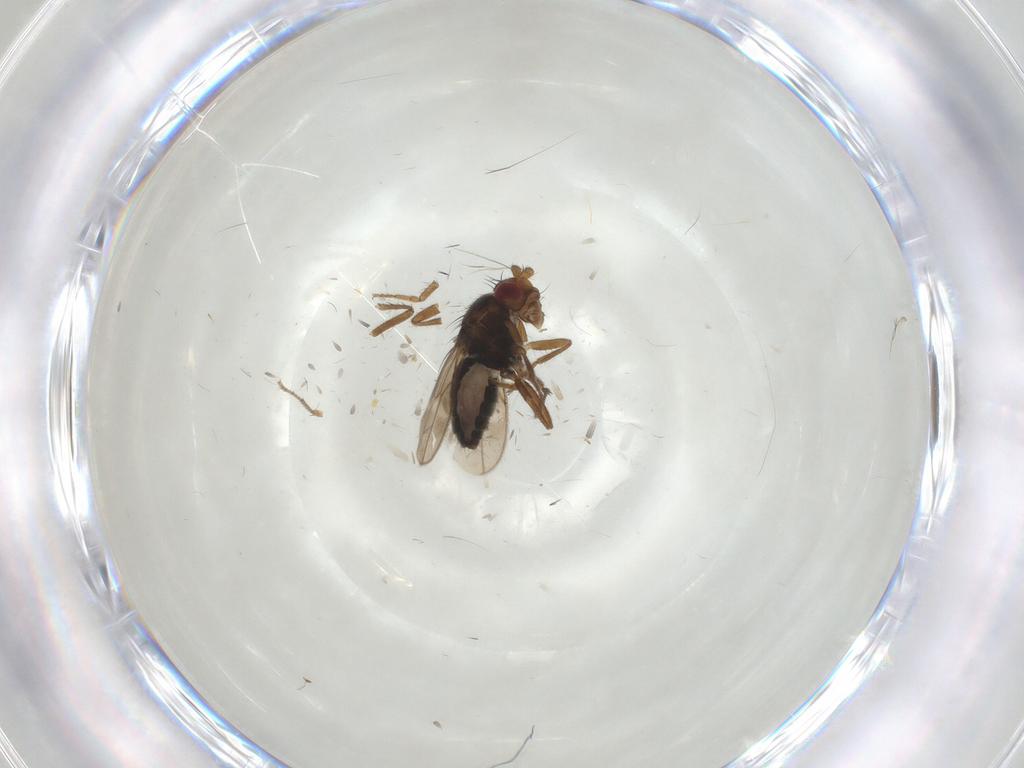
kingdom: Animalia
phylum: Arthropoda
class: Insecta
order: Diptera
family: Sphaeroceridae
